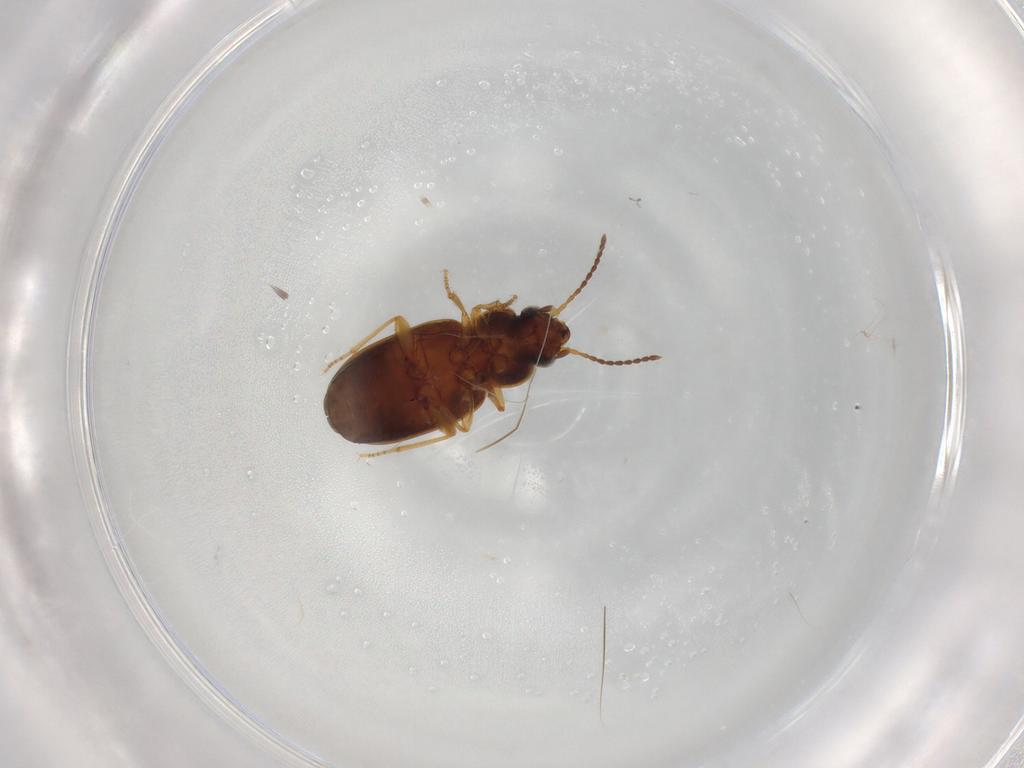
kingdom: Animalia
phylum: Arthropoda
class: Insecta
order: Coleoptera
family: Carabidae
